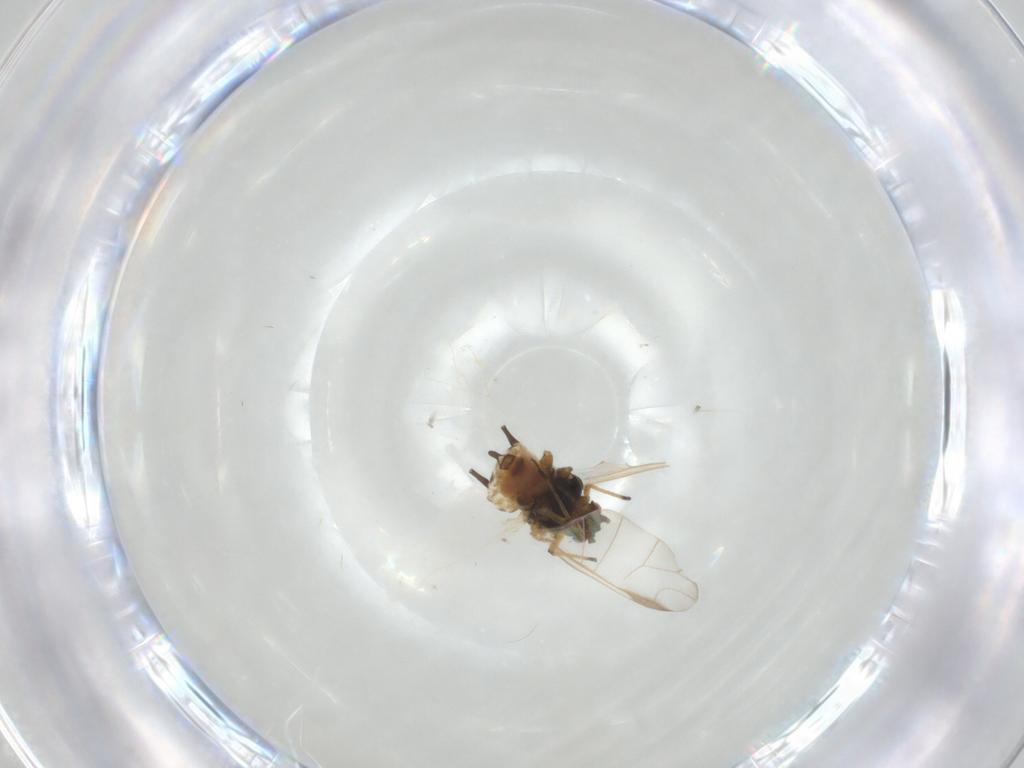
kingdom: Animalia
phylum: Arthropoda
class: Insecta
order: Hemiptera
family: Aphididae
